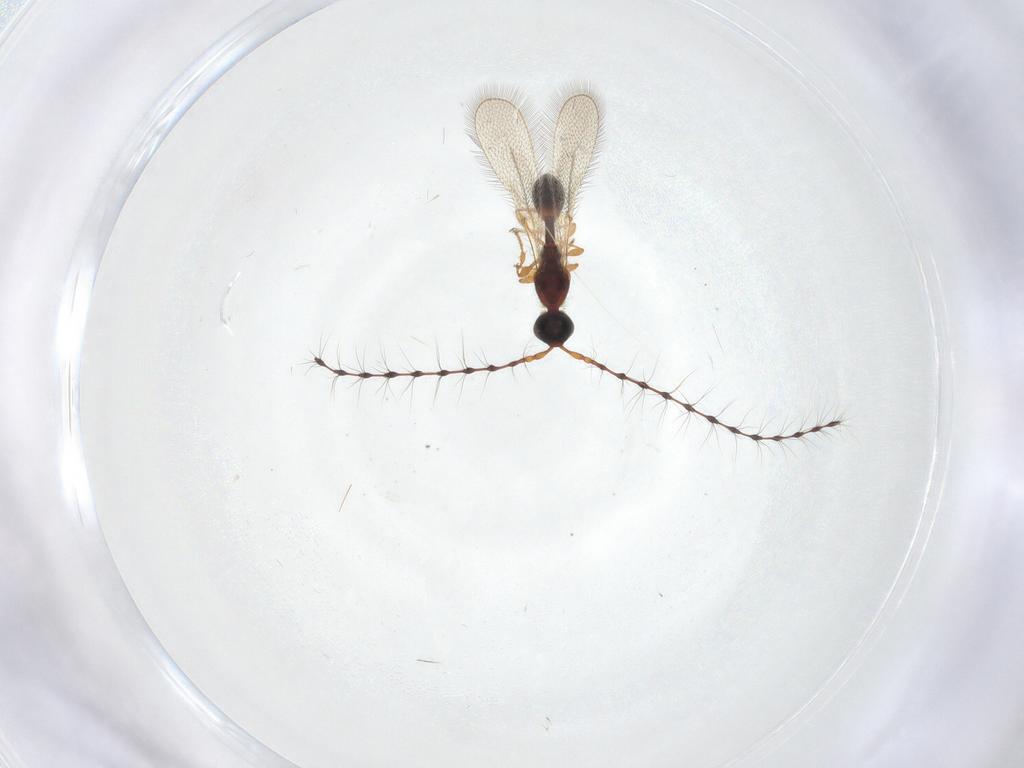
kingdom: Animalia
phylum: Arthropoda
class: Insecta
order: Hymenoptera
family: Diapriidae
